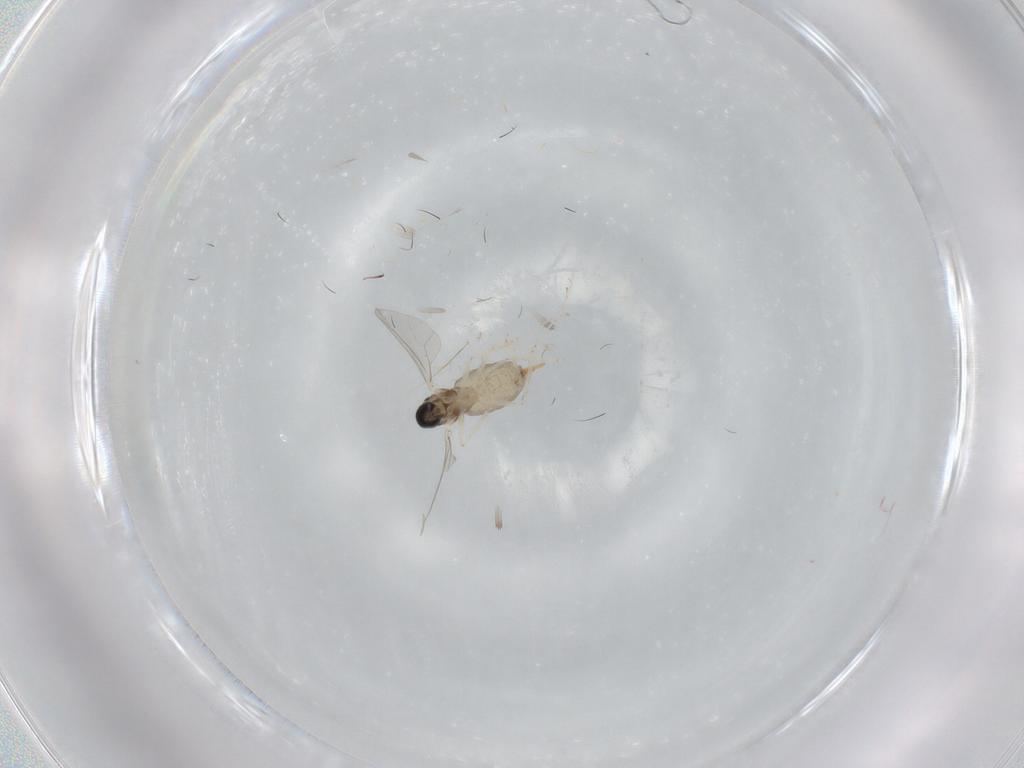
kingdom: Animalia
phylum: Arthropoda
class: Insecta
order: Diptera
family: Cecidomyiidae
